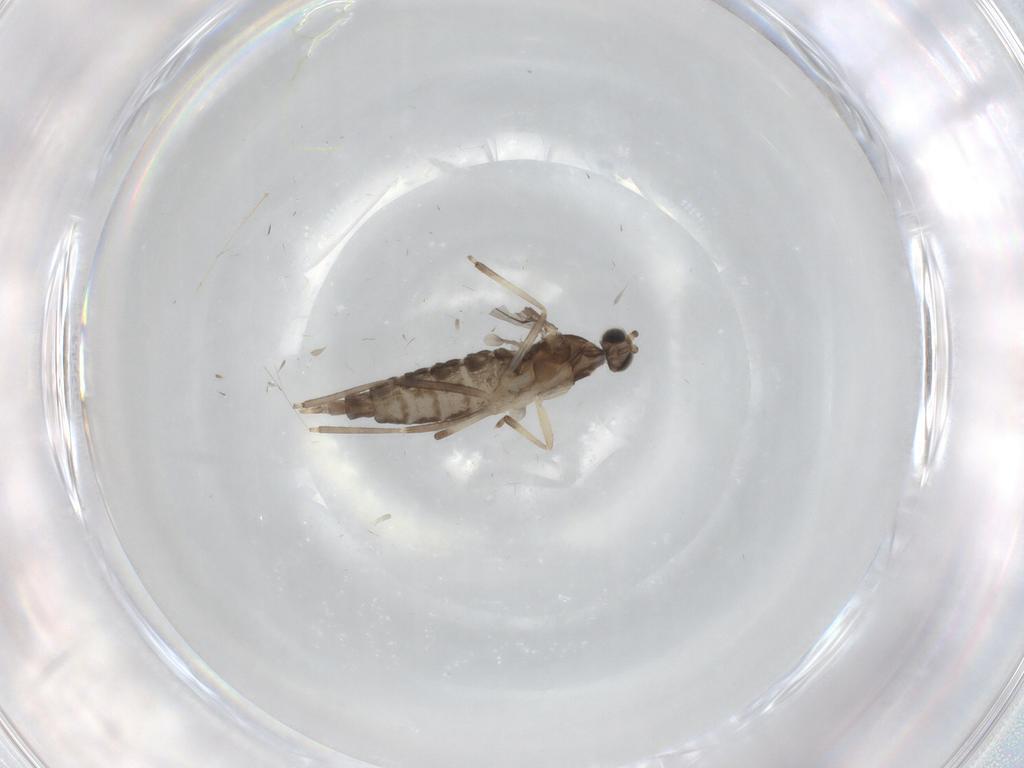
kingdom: Animalia
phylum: Arthropoda
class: Insecta
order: Diptera
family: Cecidomyiidae
